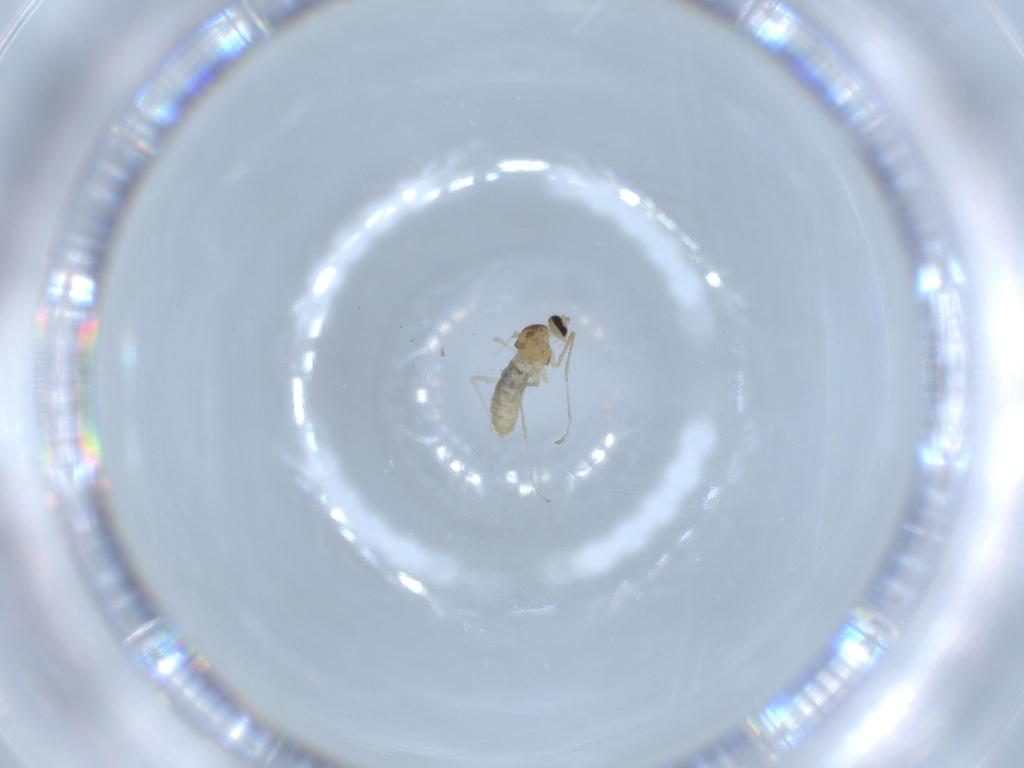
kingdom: Animalia
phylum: Arthropoda
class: Insecta
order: Diptera
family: Cecidomyiidae
